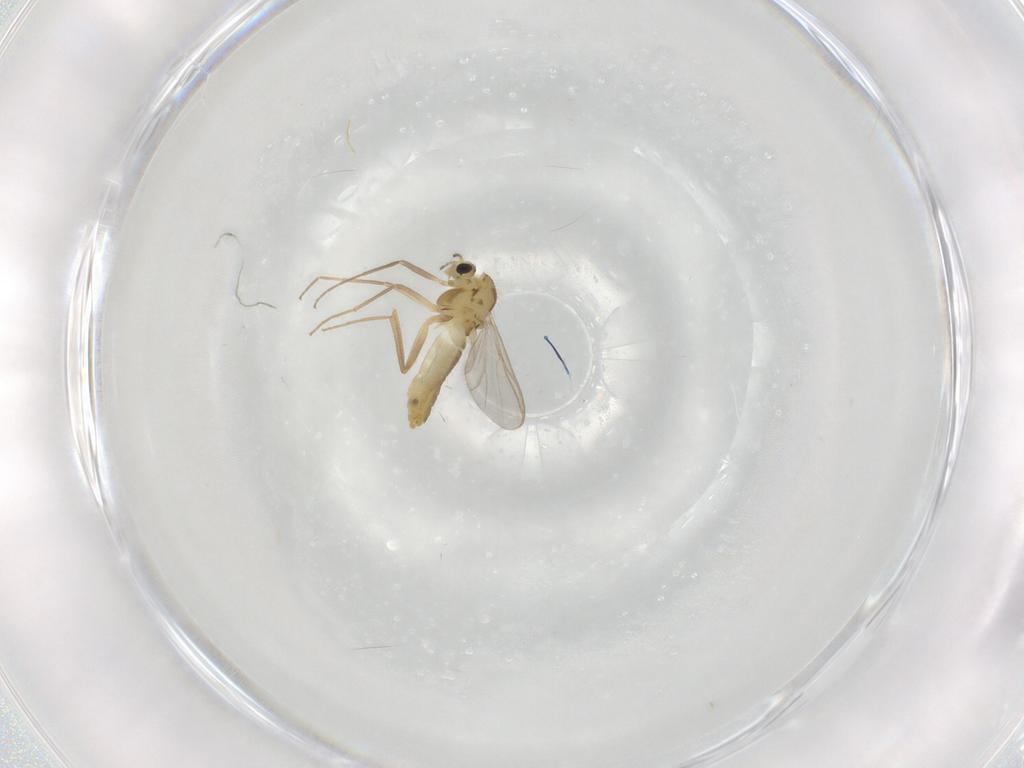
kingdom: Animalia
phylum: Arthropoda
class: Insecta
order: Diptera
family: Chironomidae
